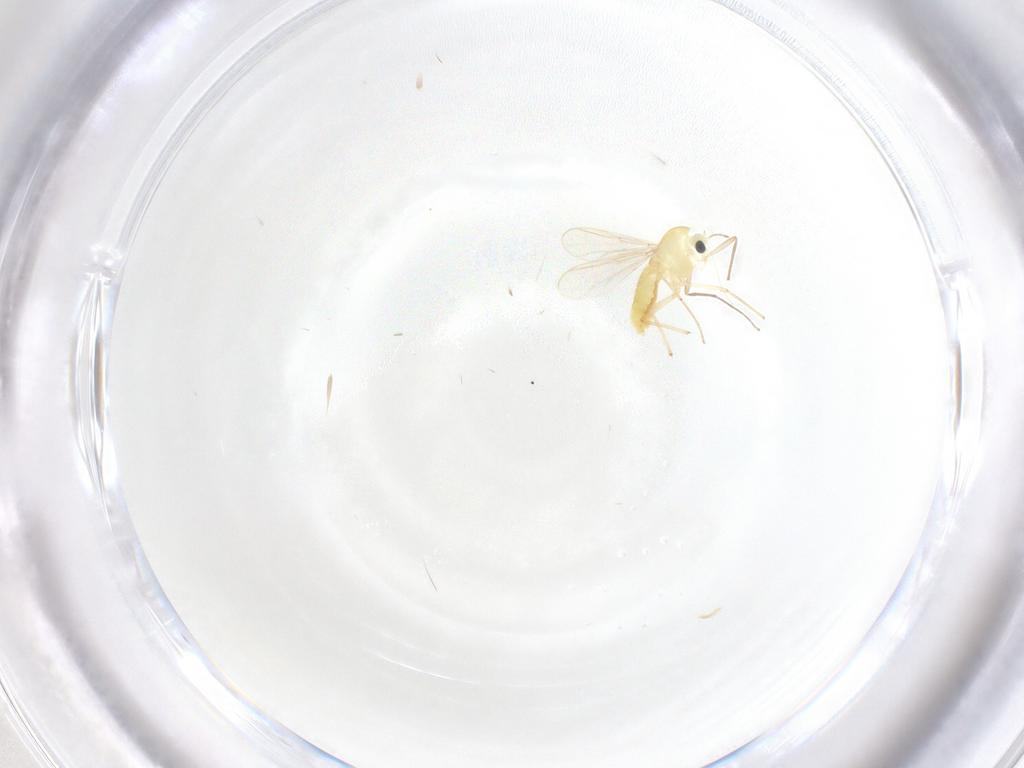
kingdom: Animalia
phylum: Arthropoda
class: Insecta
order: Diptera
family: Chironomidae
